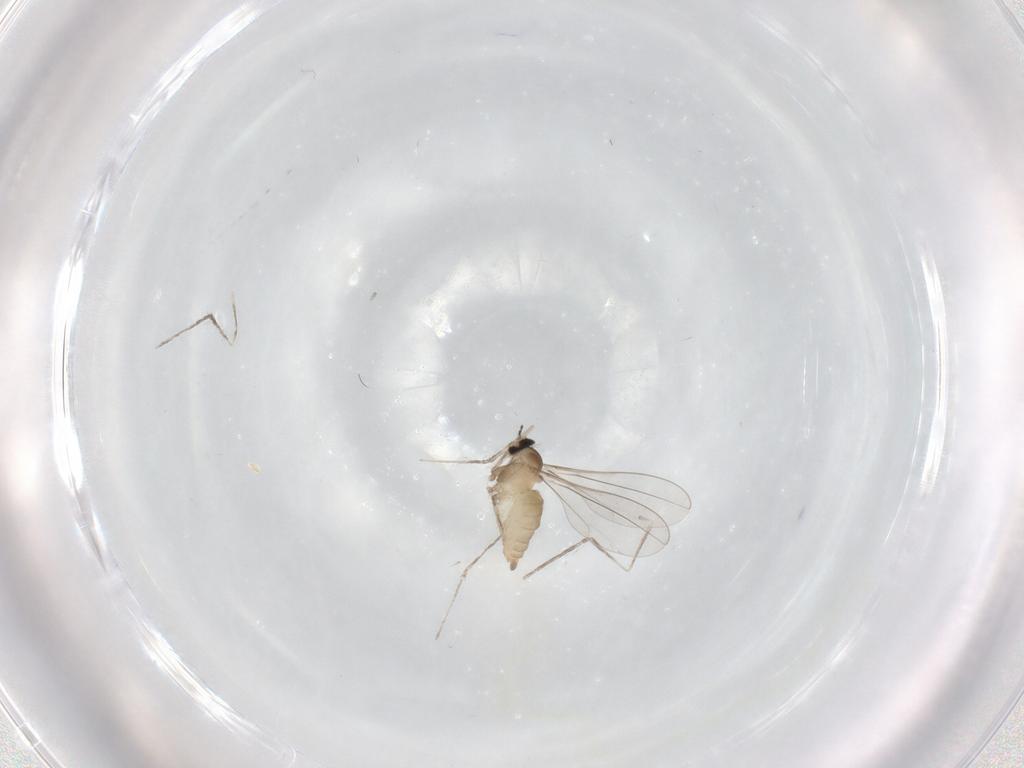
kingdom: Animalia
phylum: Arthropoda
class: Insecta
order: Diptera
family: Cecidomyiidae
